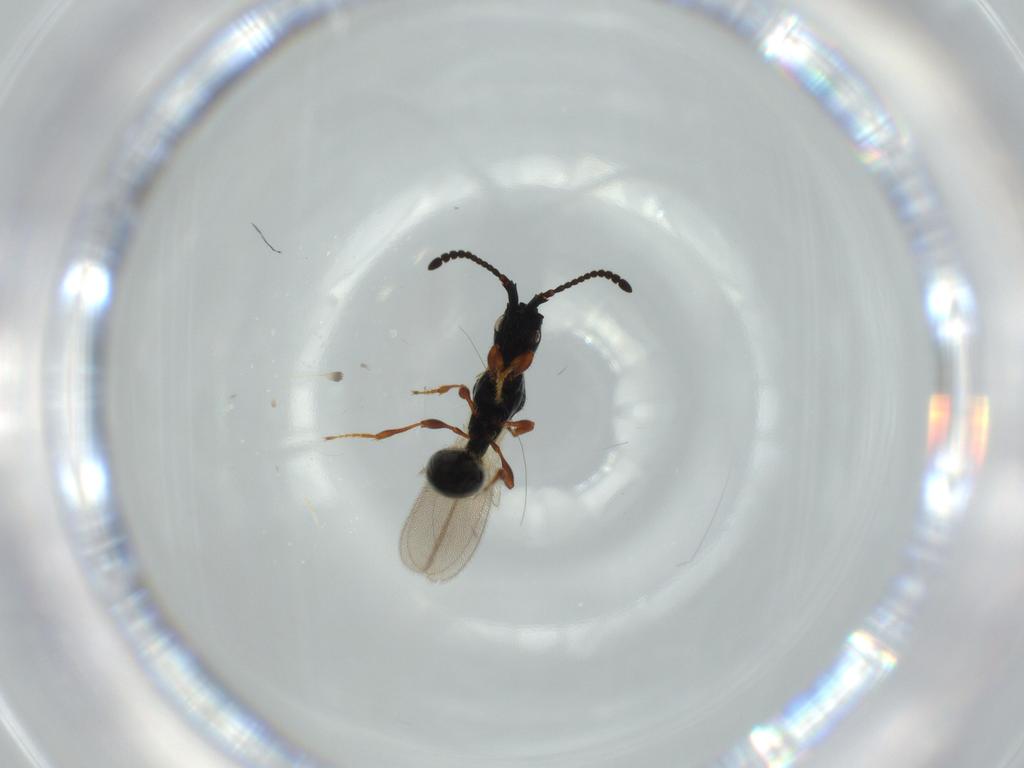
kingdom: Animalia
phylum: Arthropoda
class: Insecta
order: Hymenoptera
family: Diapriidae
